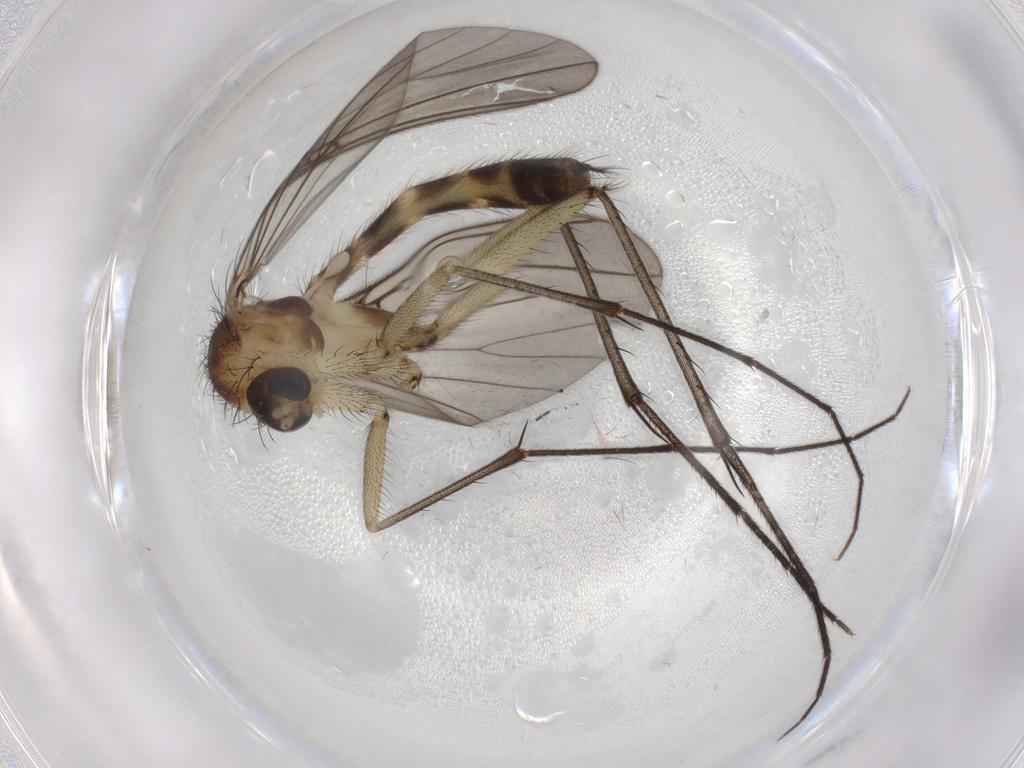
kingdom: Animalia
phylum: Arthropoda
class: Insecta
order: Diptera
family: Mycetophilidae
